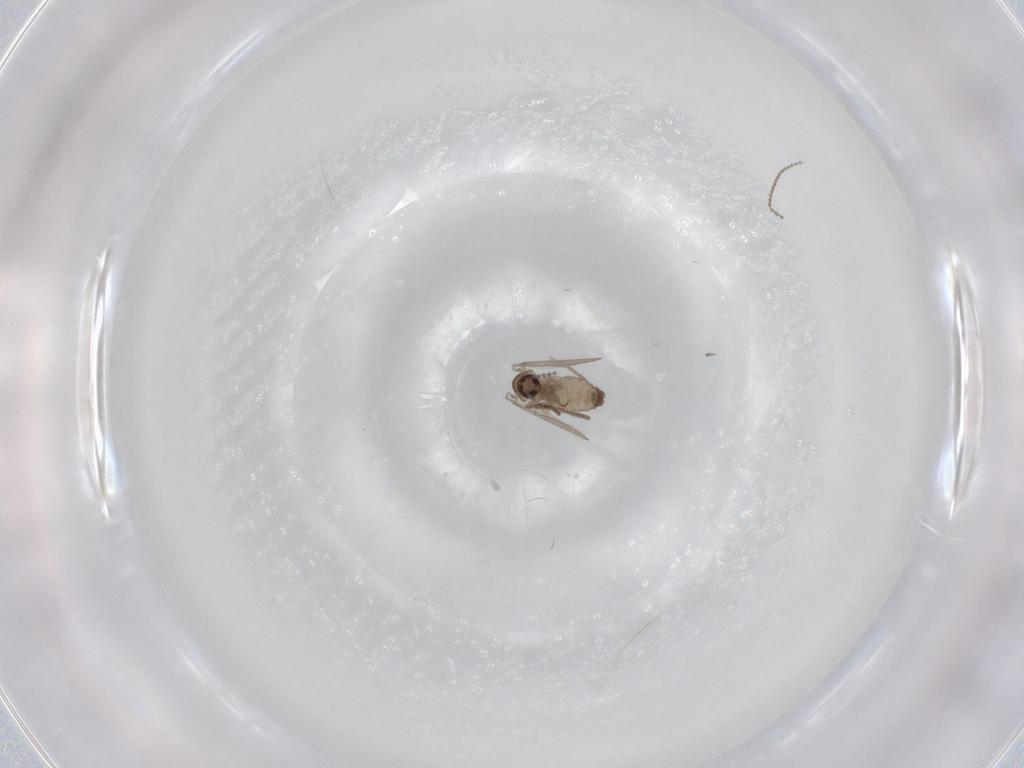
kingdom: Animalia
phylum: Arthropoda
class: Insecta
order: Diptera
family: Psychodidae
